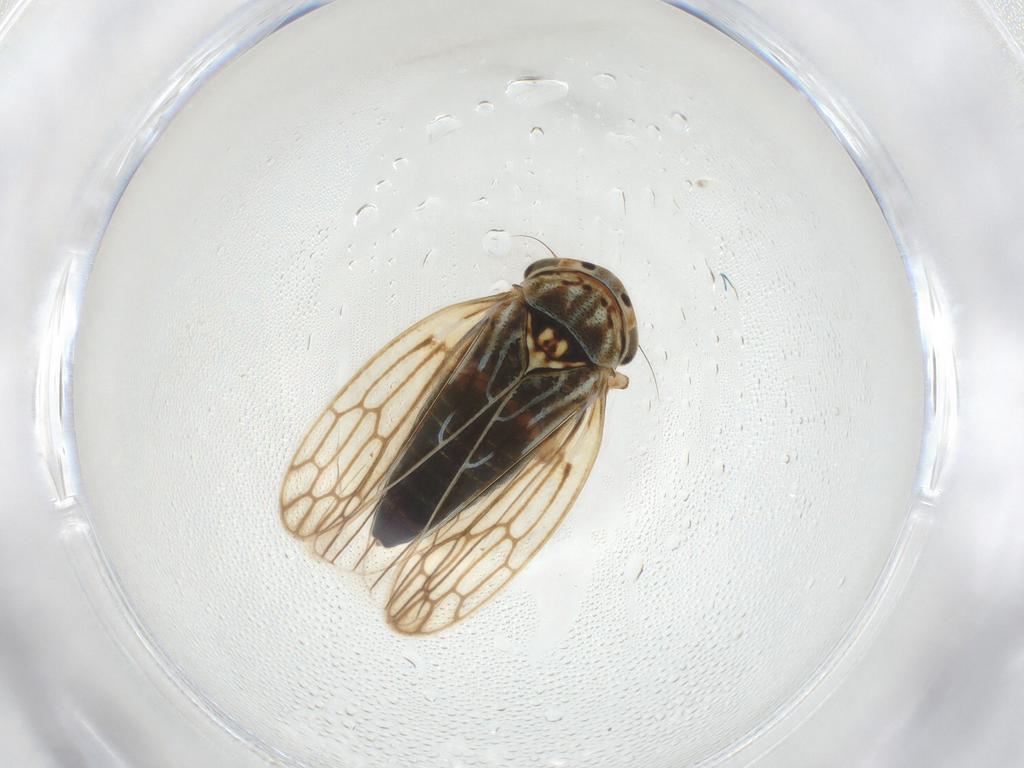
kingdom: Animalia
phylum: Arthropoda
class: Insecta
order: Hemiptera
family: Cicadellidae
